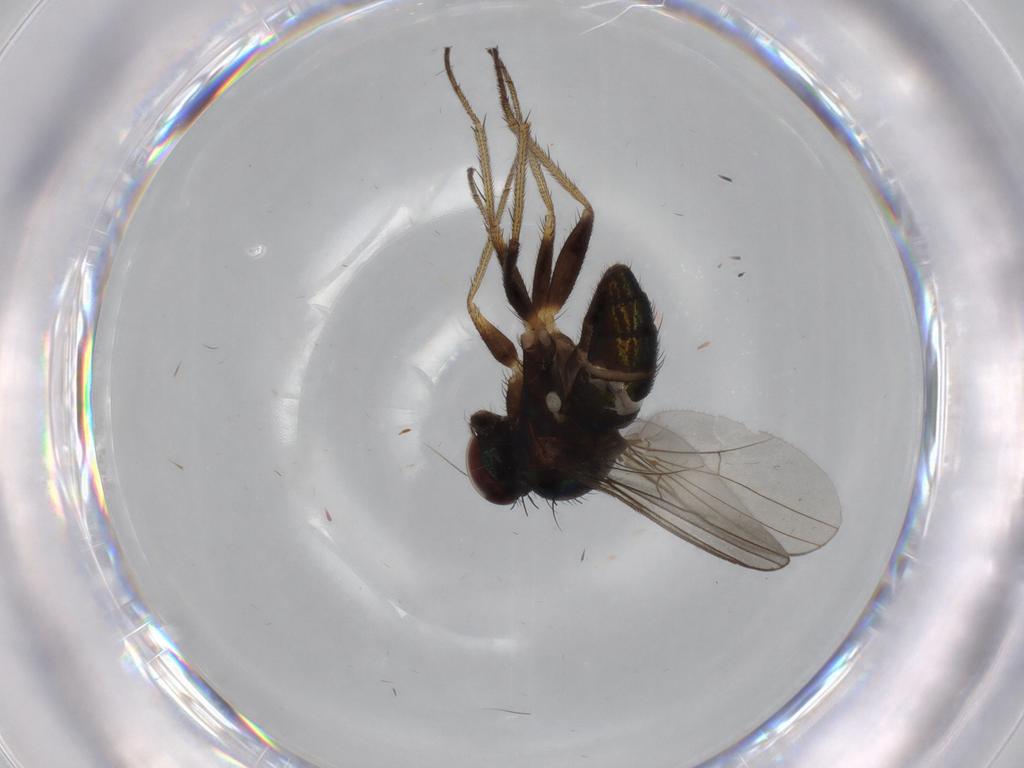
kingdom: Animalia
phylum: Arthropoda
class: Insecta
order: Diptera
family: Dolichopodidae
